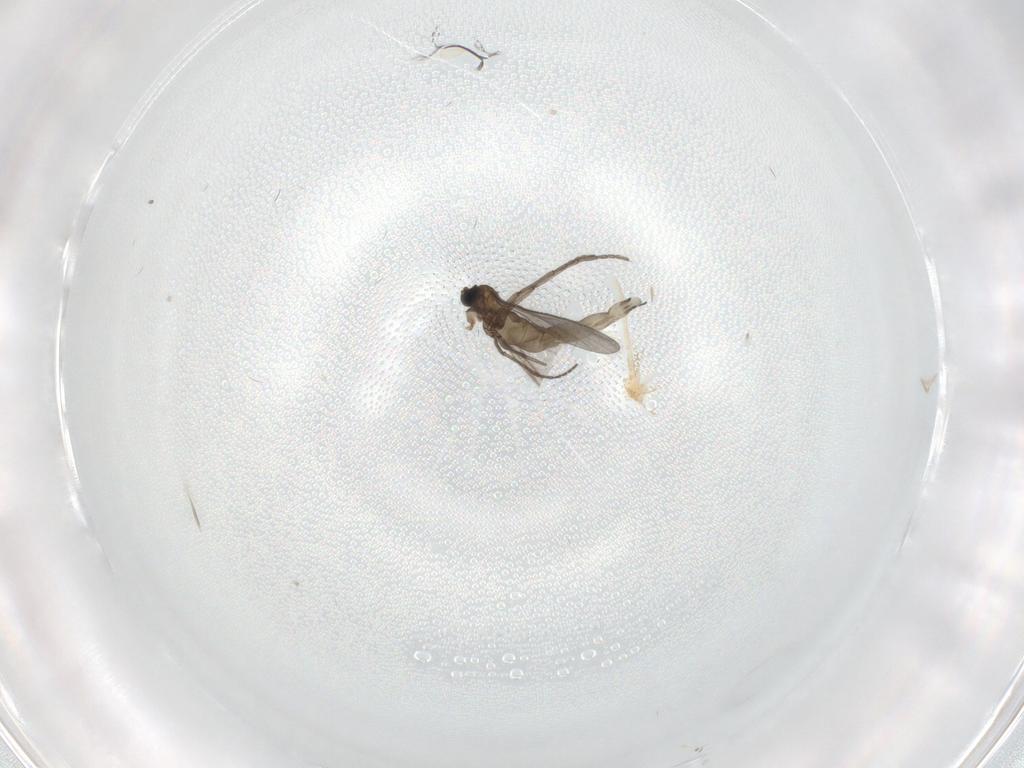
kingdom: Animalia
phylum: Arthropoda
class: Insecta
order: Diptera
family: Sciaridae
